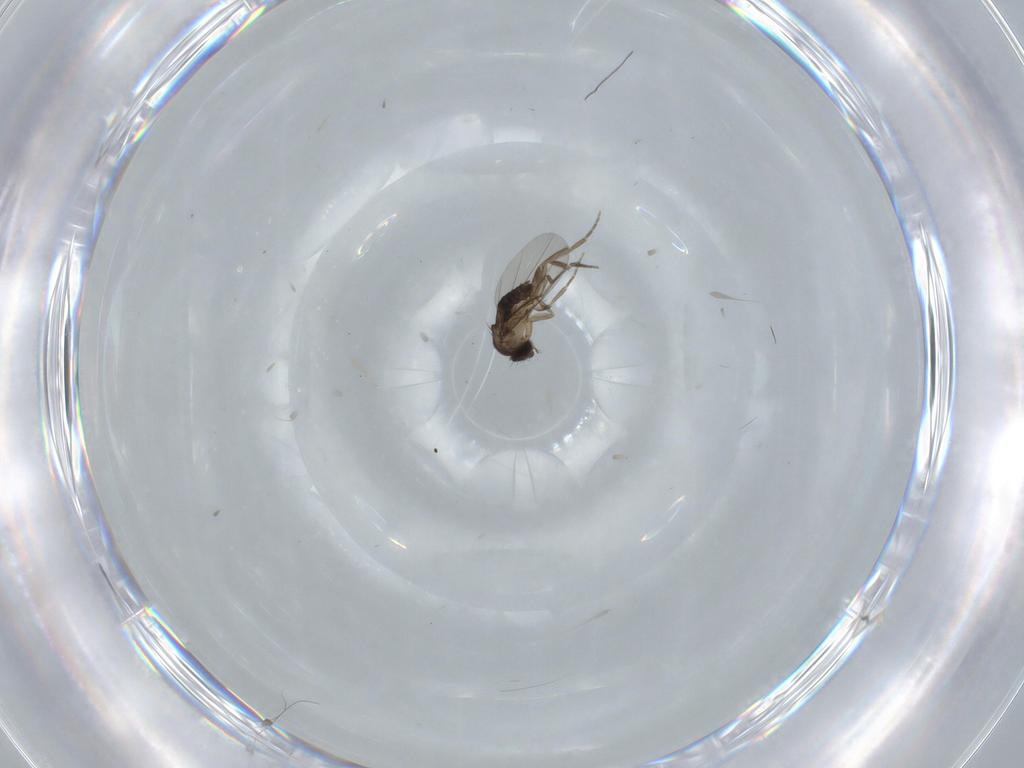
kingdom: Animalia
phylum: Arthropoda
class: Insecta
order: Diptera
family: Phoridae
